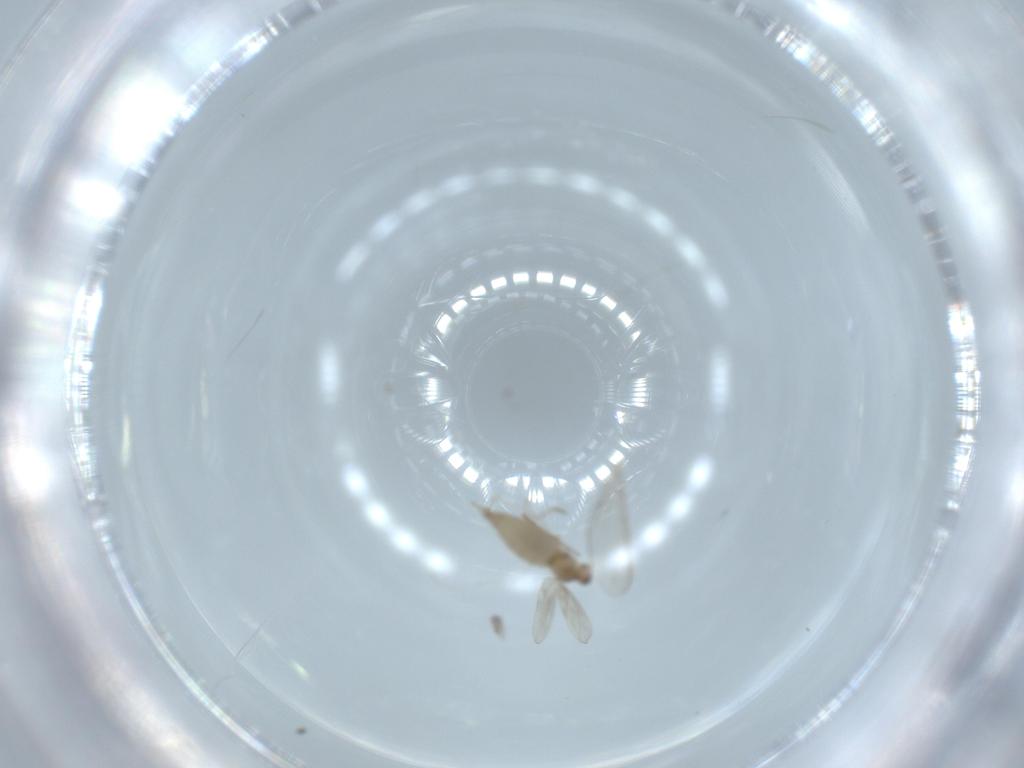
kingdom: Animalia
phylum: Arthropoda
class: Insecta
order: Diptera
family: Cecidomyiidae
